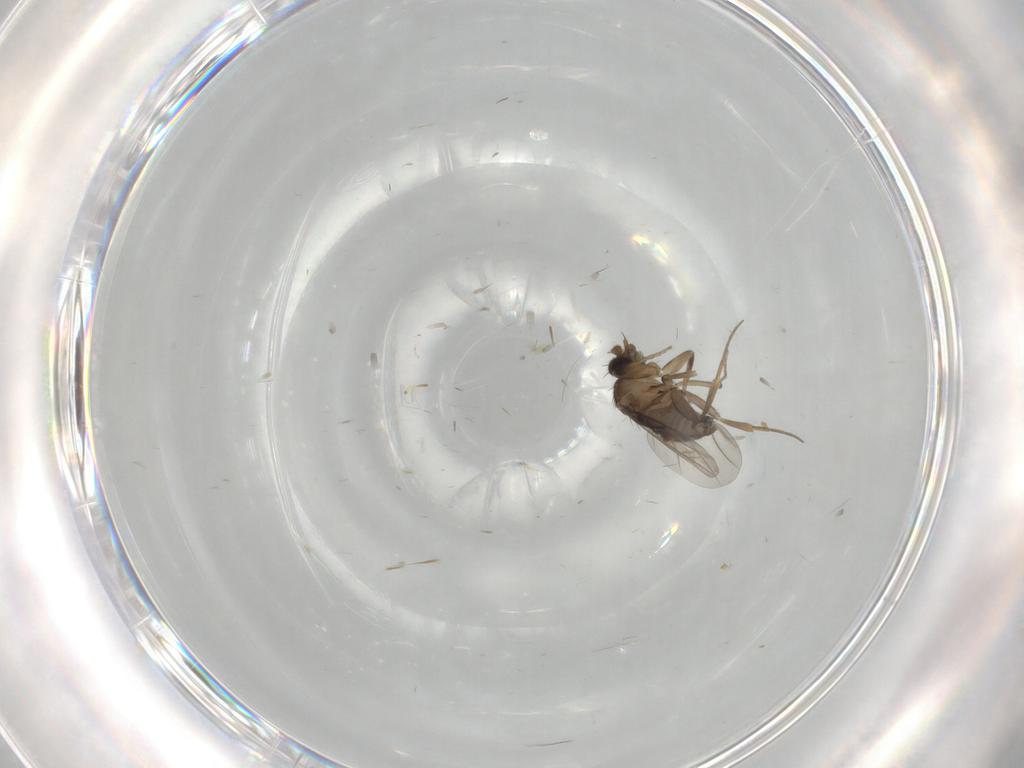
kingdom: Animalia
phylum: Arthropoda
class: Insecta
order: Diptera
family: Phoridae
